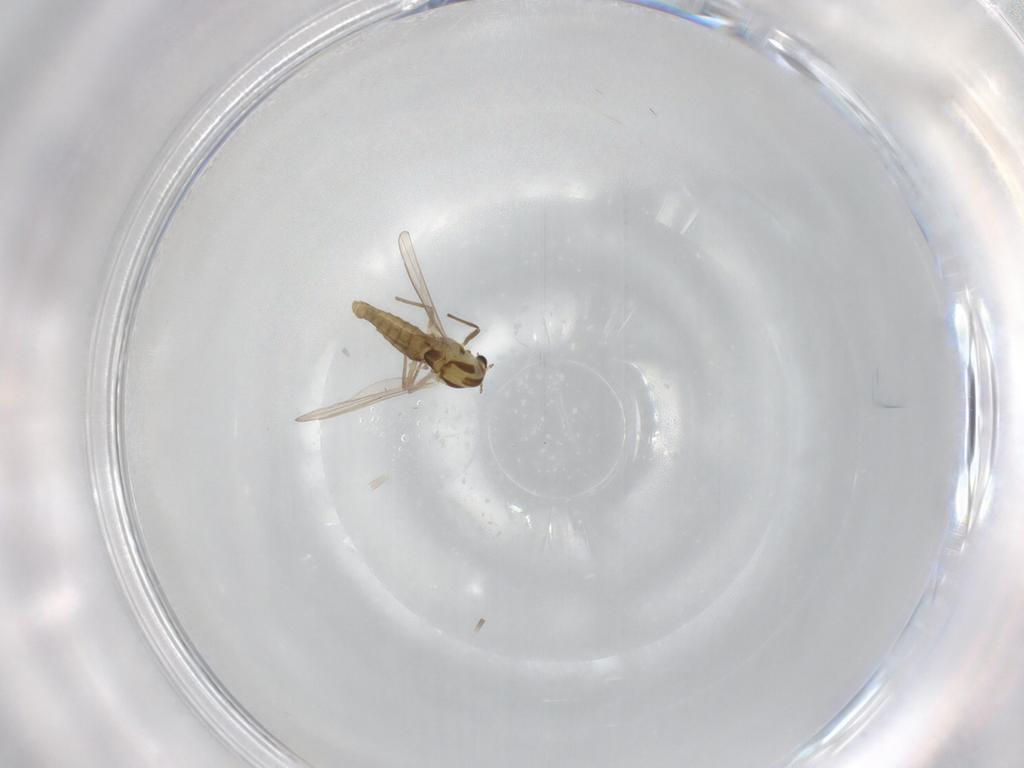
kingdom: Animalia
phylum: Arthropoda
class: Insecta
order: Diptera
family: Chironomidae
